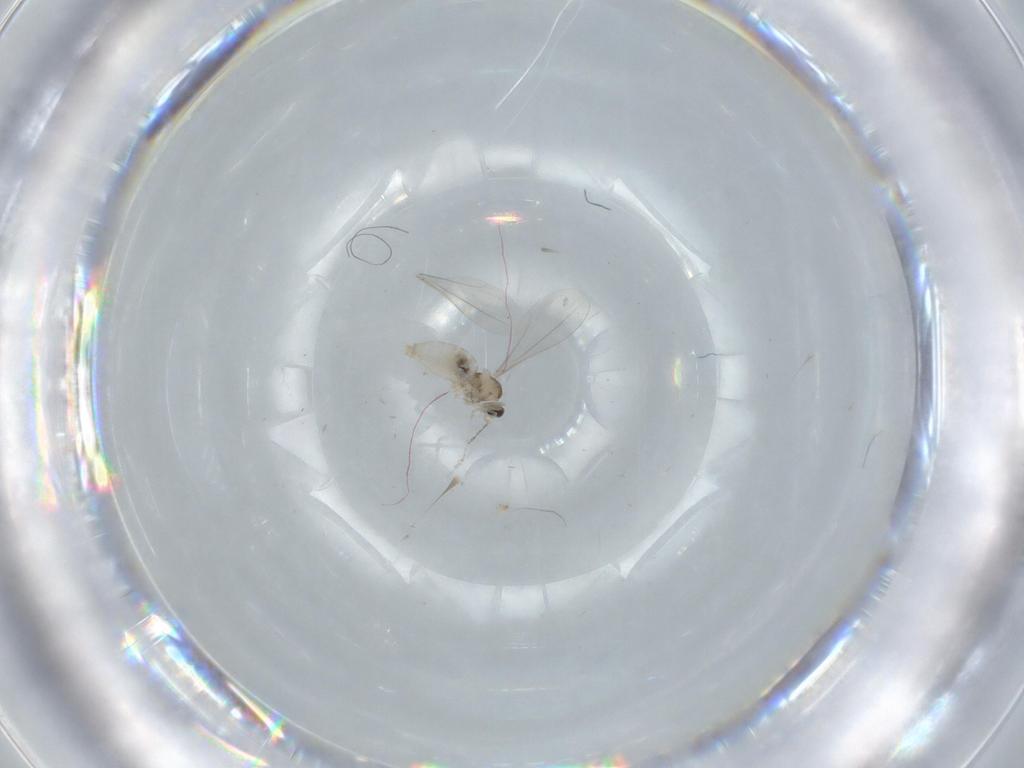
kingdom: Animalia
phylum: Arthropoda
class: Insecta
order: Diptera
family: Cecidomyiidae
